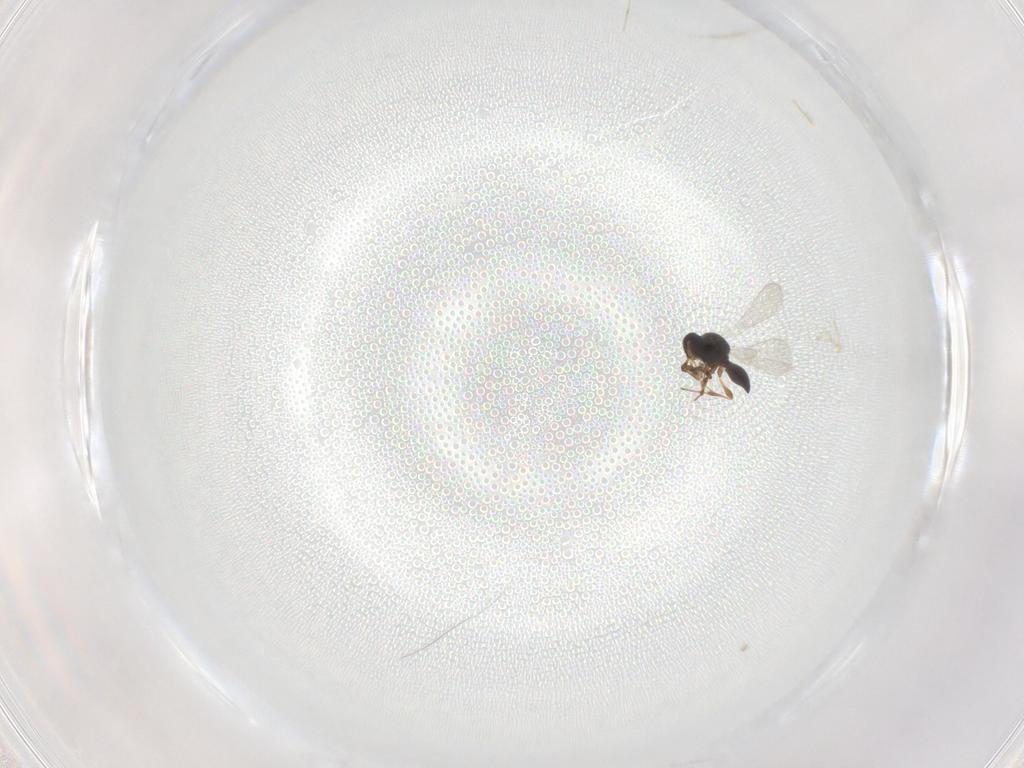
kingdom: Animalia
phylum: Arthropoda
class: Insecta
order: Hymenoptera
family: Platygastridae
